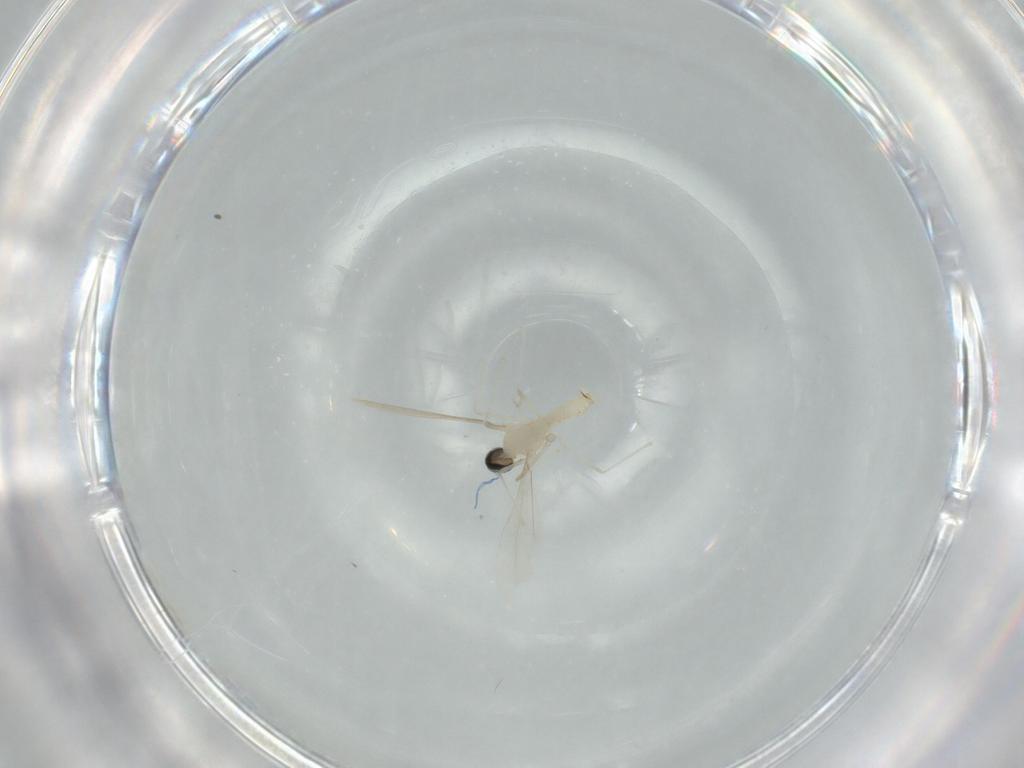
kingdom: Animalia
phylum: Arthropoda
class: Insecta
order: Diptera
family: Cecidomyiidae
